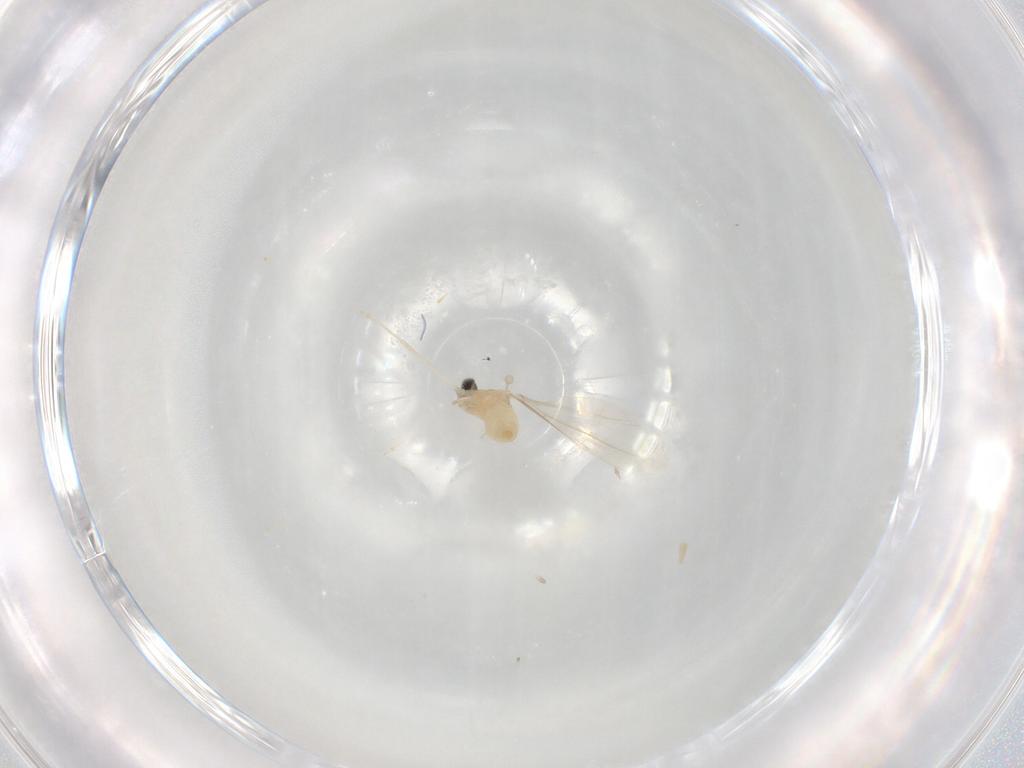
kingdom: Animalia
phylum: Arthropoda
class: Insecta
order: Diptera
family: Cecidomyiidae
